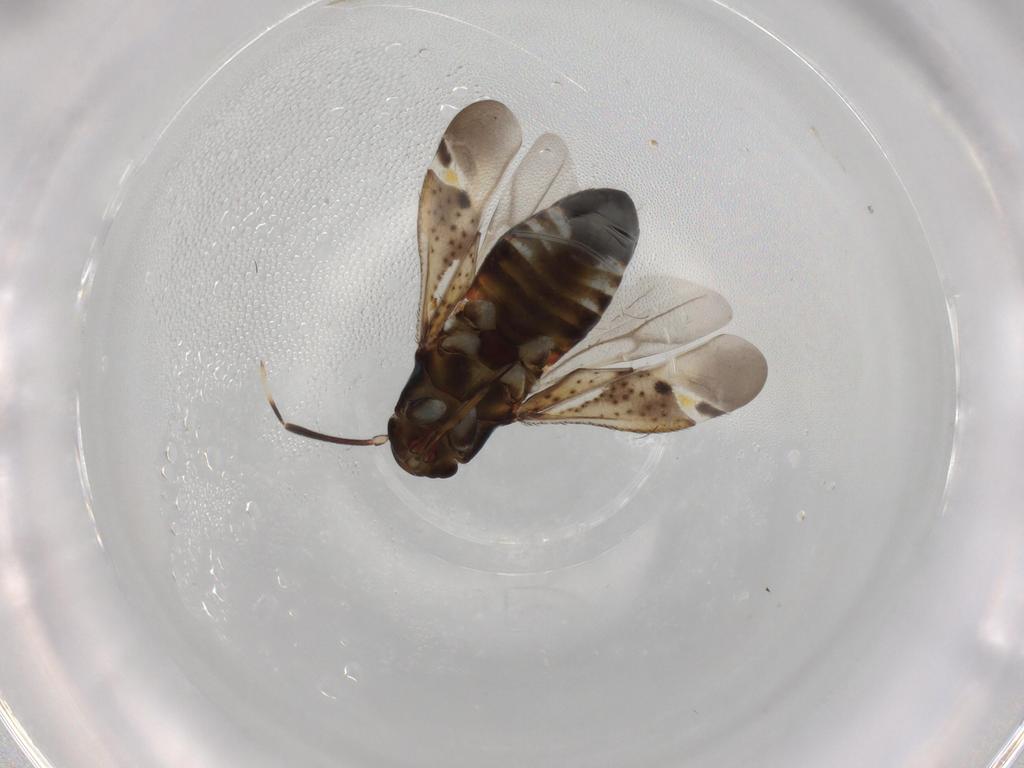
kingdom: Animalia
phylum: Arthropoda
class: Insecta
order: Hemiptera
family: Miridae
